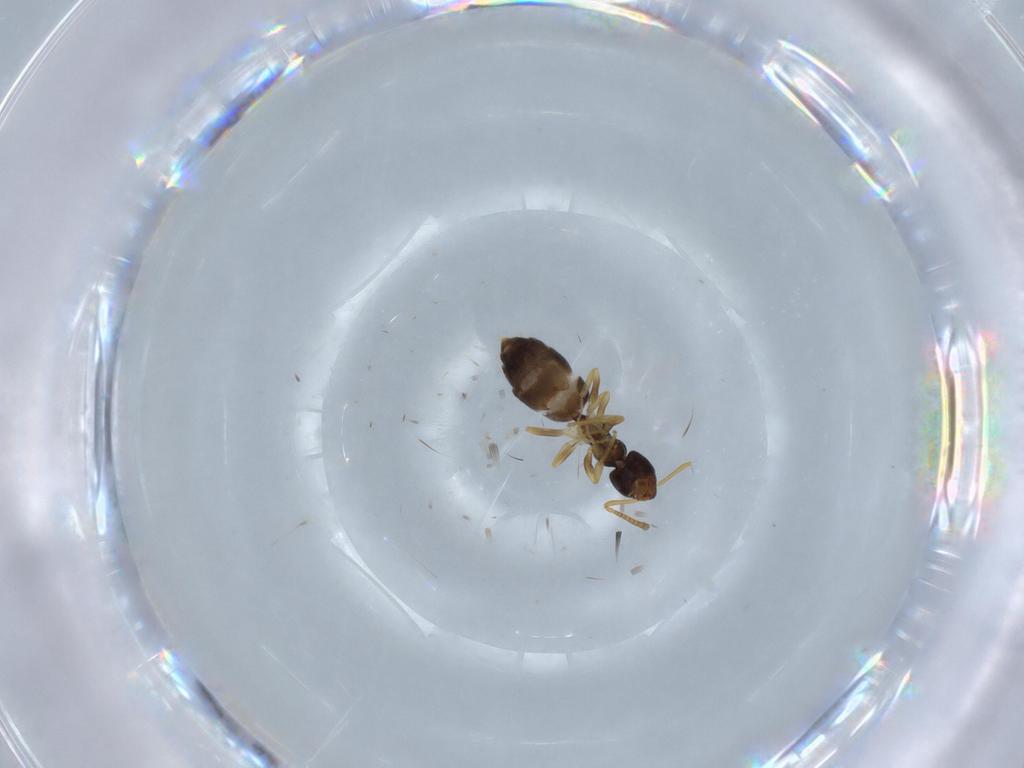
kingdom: Animalia
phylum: Arthropoda
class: Insecta
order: Hymenoptera
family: Formicidae
